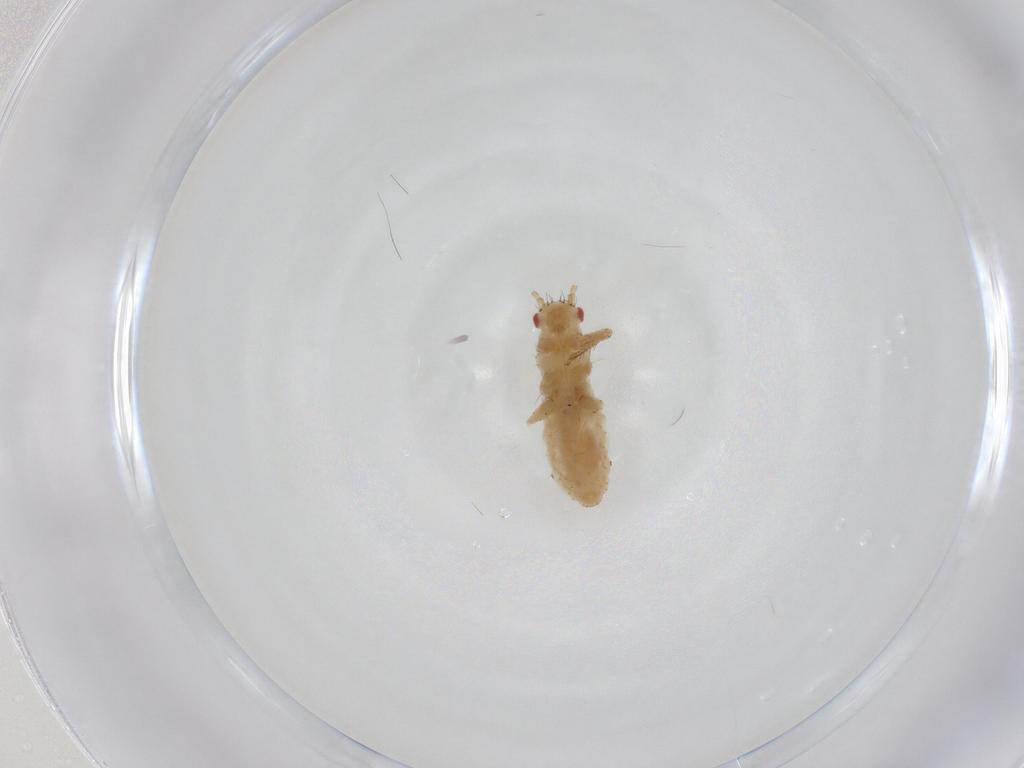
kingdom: Animalia
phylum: Arthropoda
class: Insecta
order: Hemiptera
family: Aphididae
